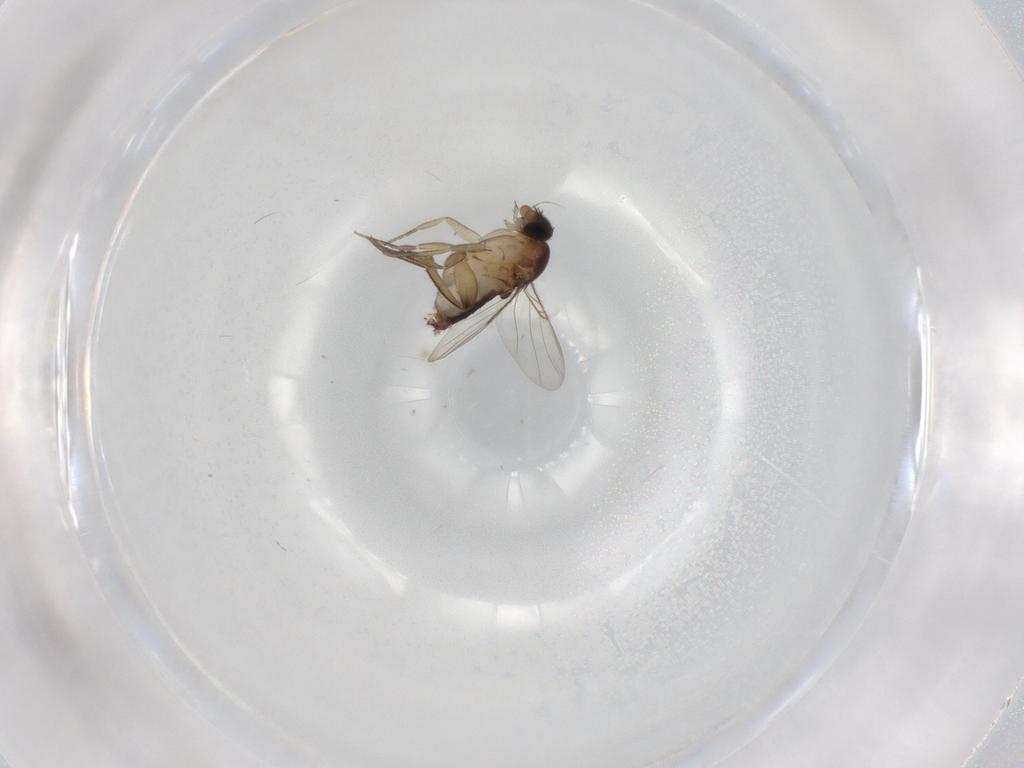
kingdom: Animalia
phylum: Arthropoda
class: Insecta
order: Diptera
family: Phoridae
